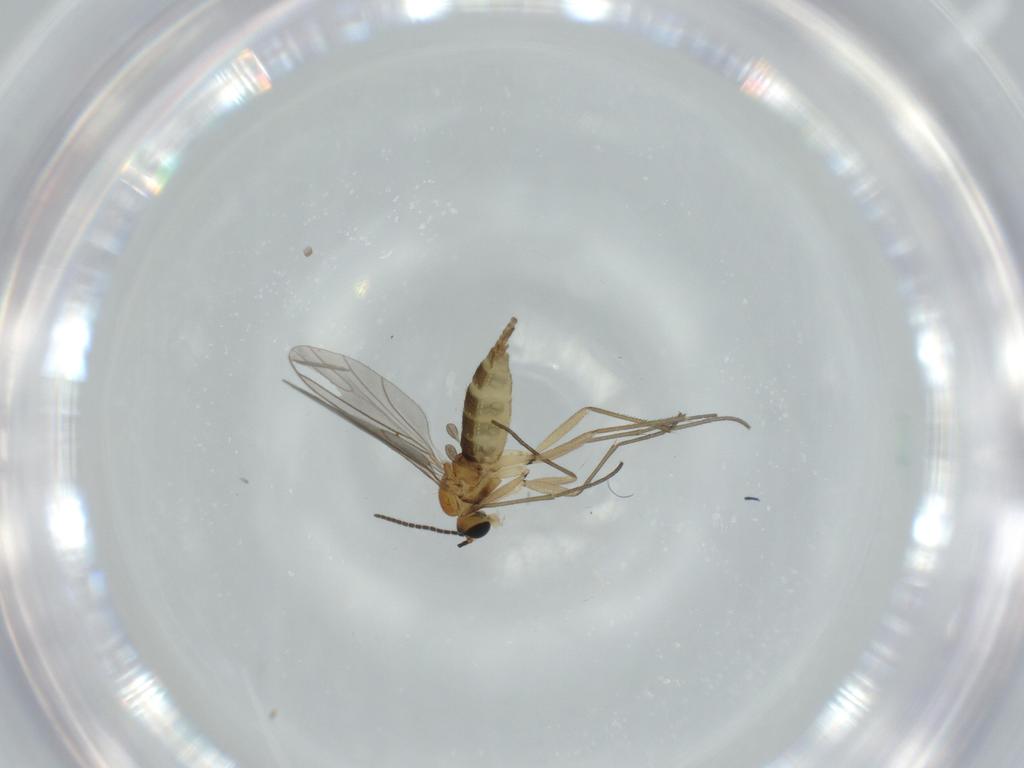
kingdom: Animalia
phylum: Arthropoda
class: Insecta
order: Diptera
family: Sciaridae
